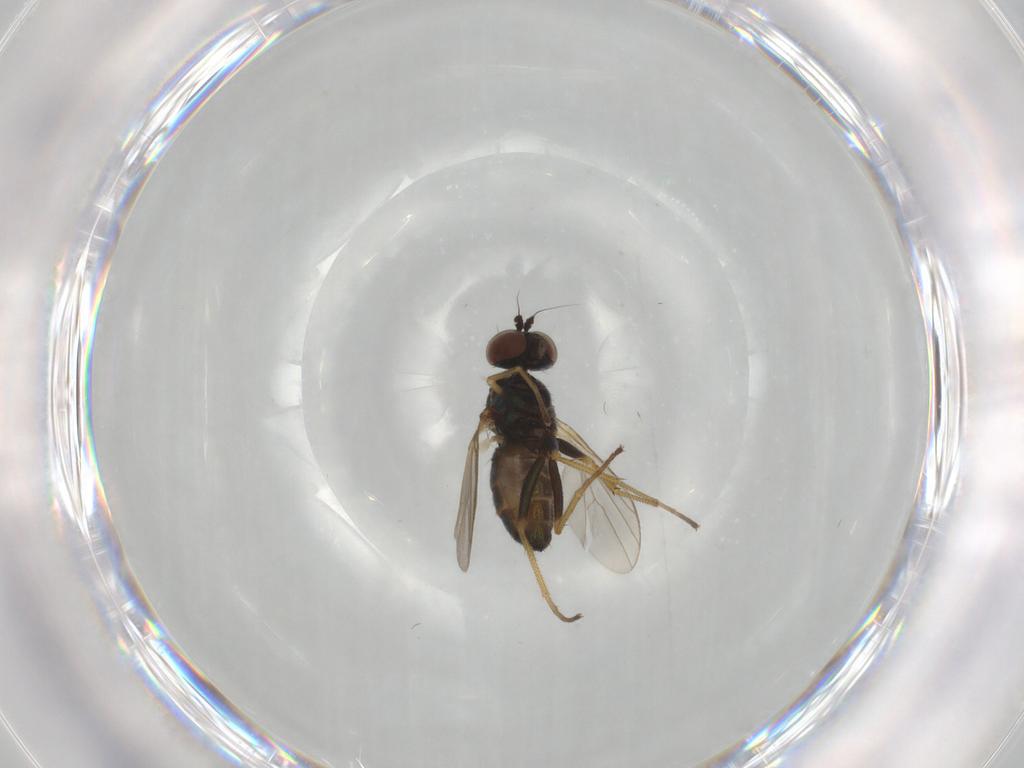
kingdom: Animalia
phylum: Arthropoda
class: Insecta
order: Diptera
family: Dolichopodidae
